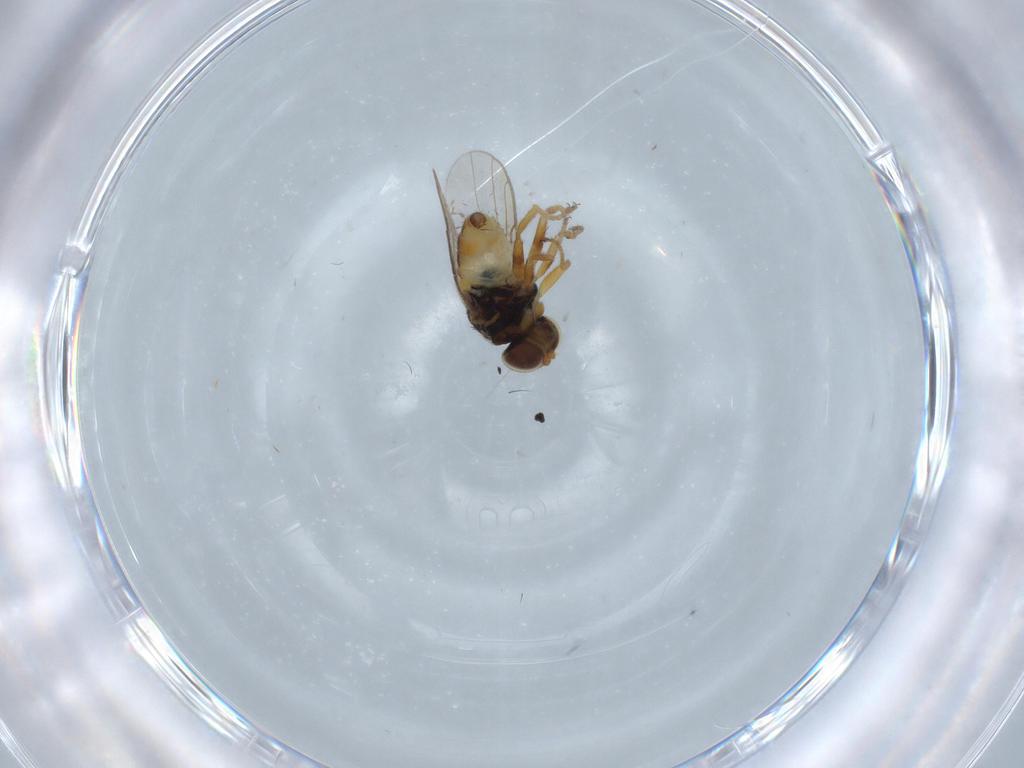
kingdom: Animalia
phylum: Arthropoda
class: Insecta
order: Diptera
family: Chloropidae
